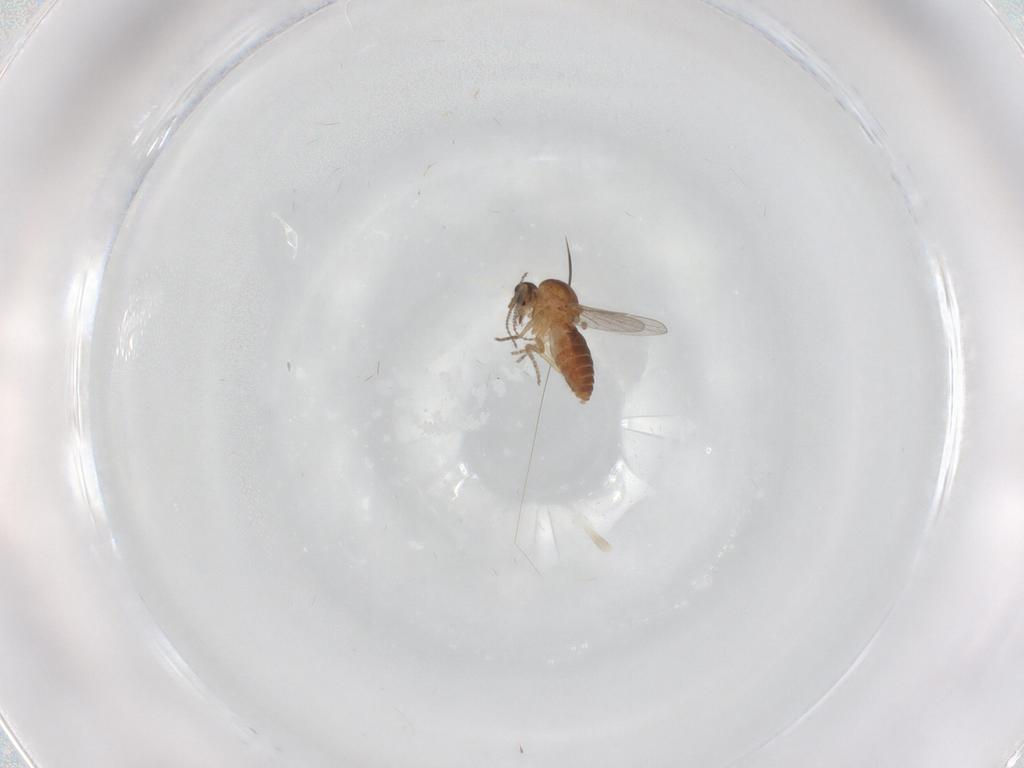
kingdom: Animalia
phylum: Arthropoda
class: Insecta
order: Diptera
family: Ceratopogonidae
